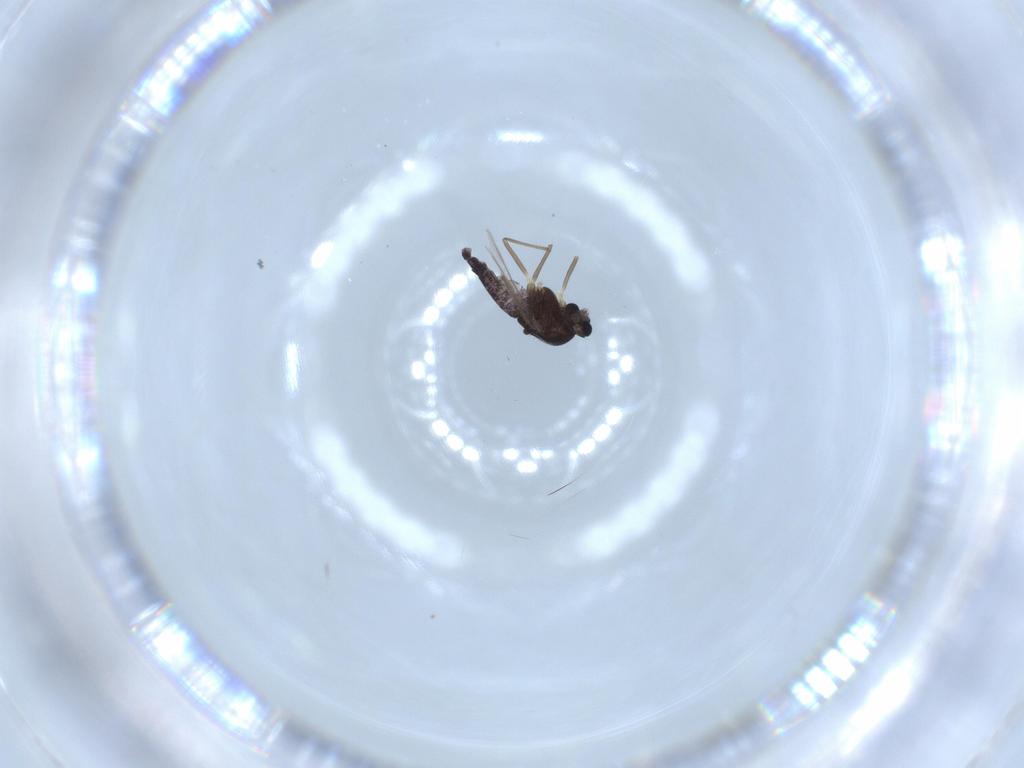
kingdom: Animalia
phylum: Arthropoda
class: Insecta
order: Diptera
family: Chironomidae
